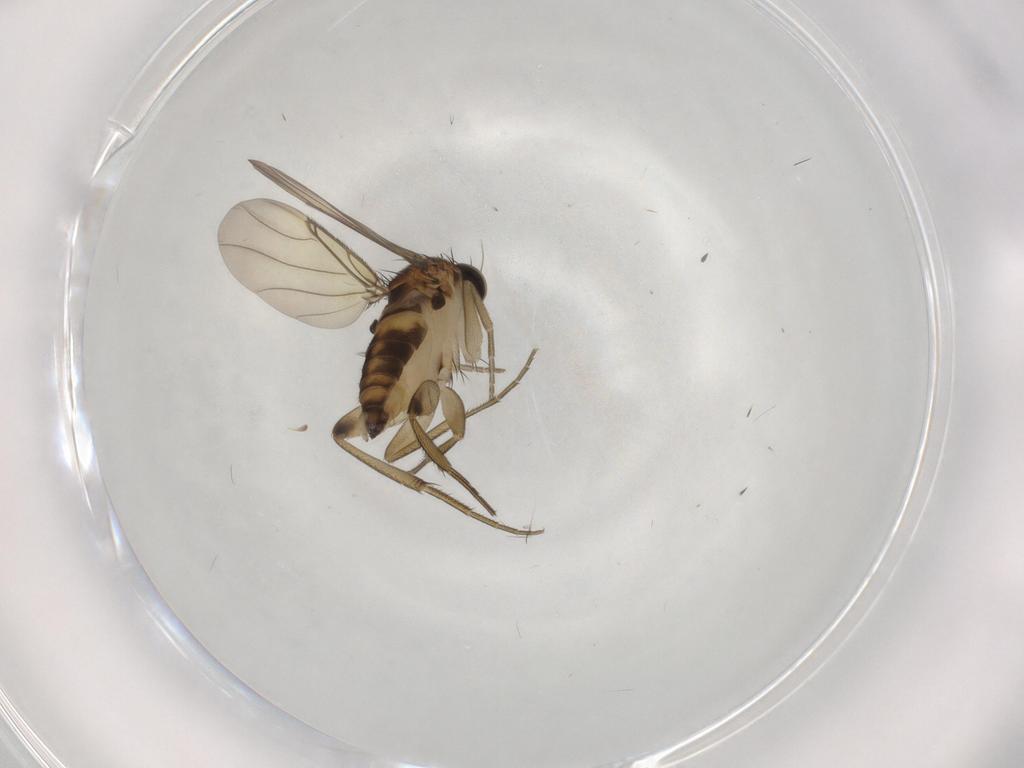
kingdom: Animalia
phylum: Arthropoda
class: Insecta
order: Diptera
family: Phoridae
